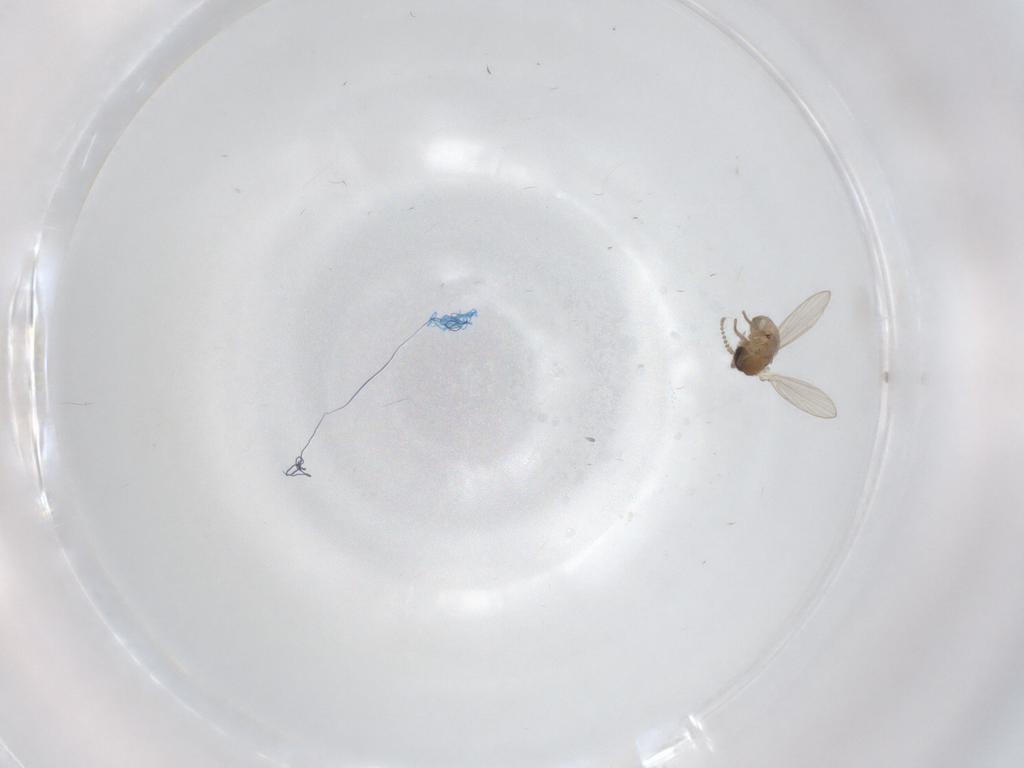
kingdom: Animalia
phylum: Arthropoda
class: Insecta
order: Diptera
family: Psychodidae
